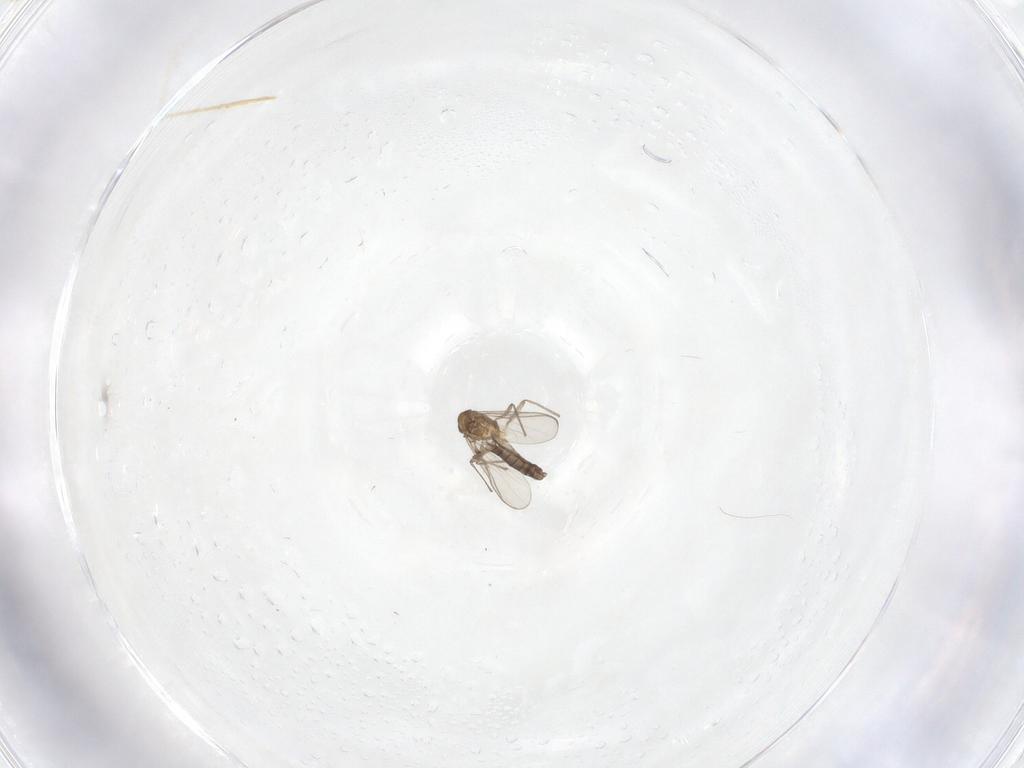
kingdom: Animalia
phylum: Arthropoda
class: Insecta
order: Diptera
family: Chironomidae
